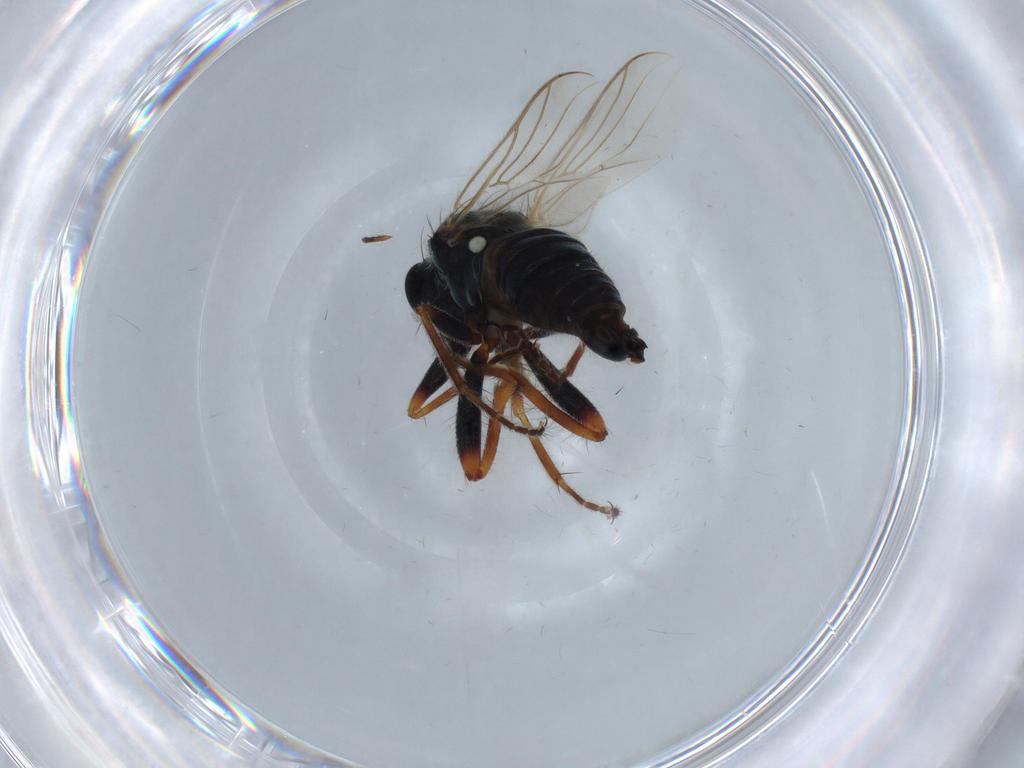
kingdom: Animalia
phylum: Arthropoda
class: Insecta
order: Diptera
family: Hybotidae
